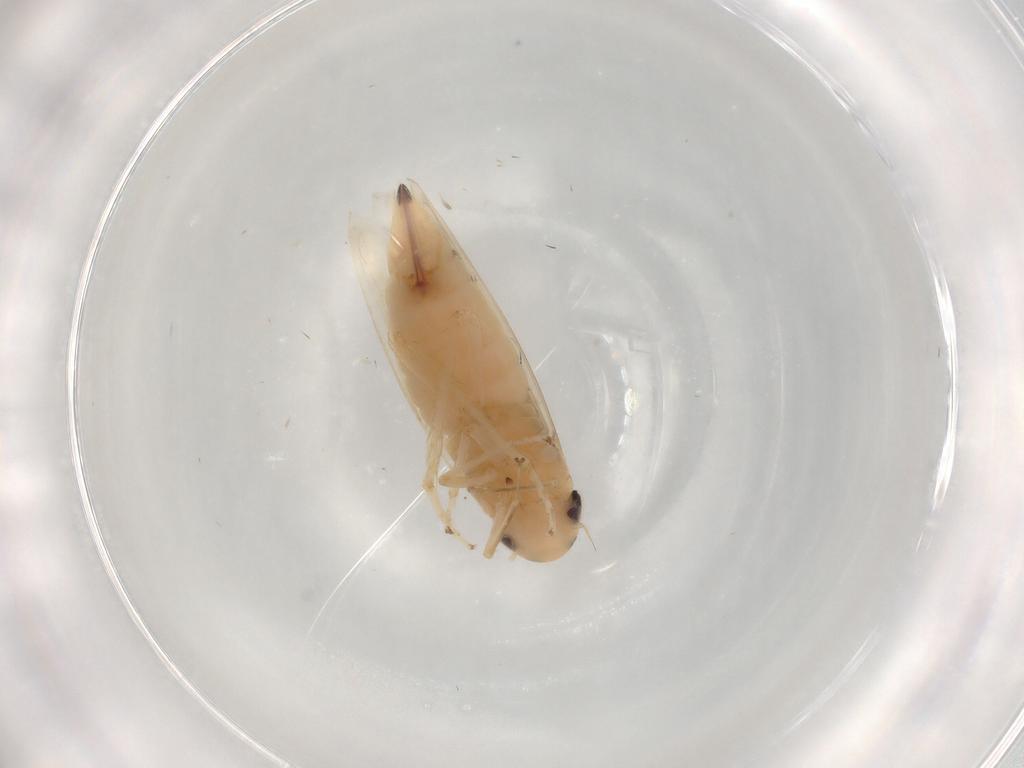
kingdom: Animalia
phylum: Arthropoda
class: Insecta
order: Hemiptera
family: Cicadellidae
